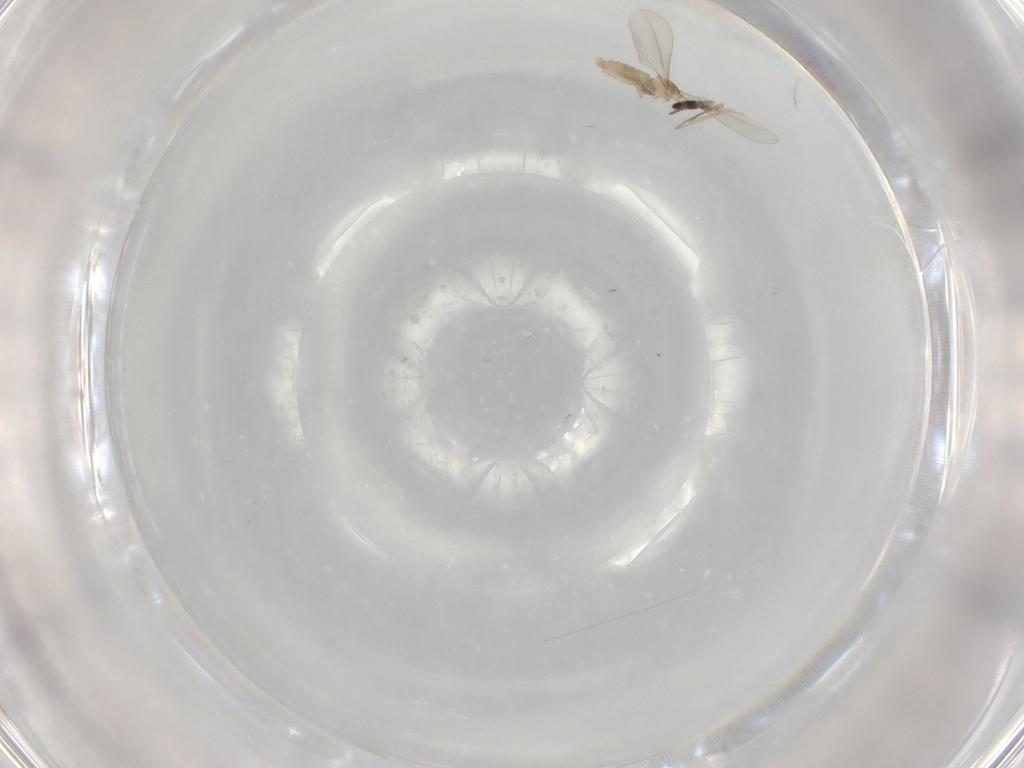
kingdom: Animalia
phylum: Arthropoda
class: Insecta
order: Diptera
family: Cecidomyiidae
